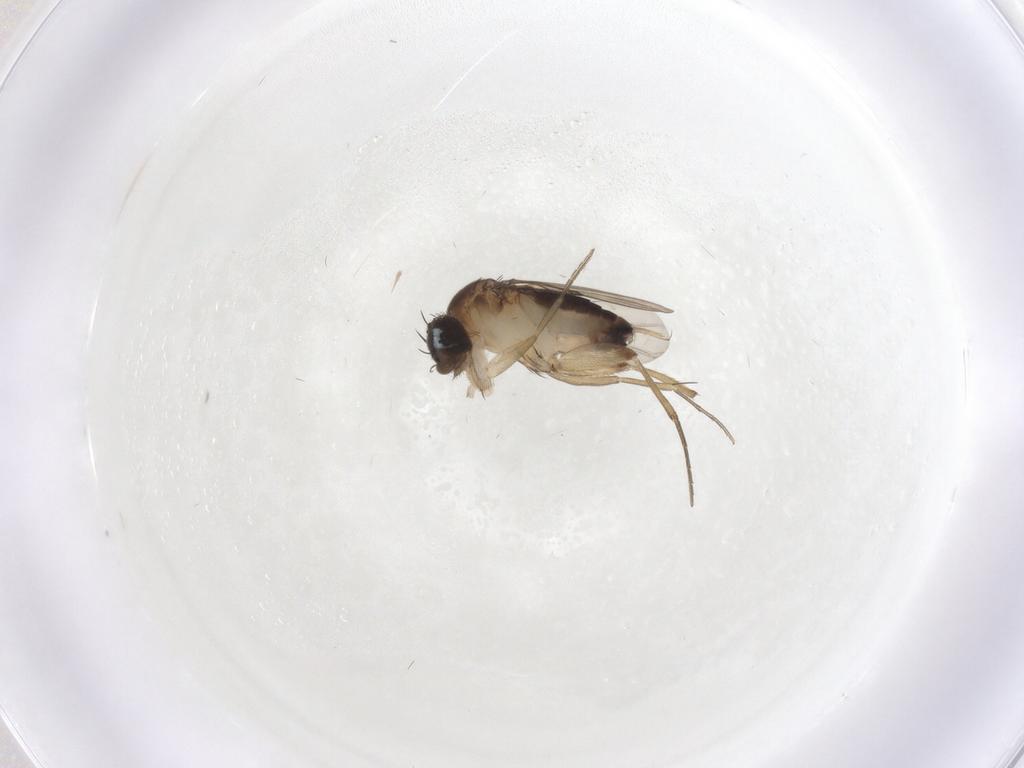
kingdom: Animalia
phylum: Arthropoda
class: Insecta
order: Diptera
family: Phoridae
